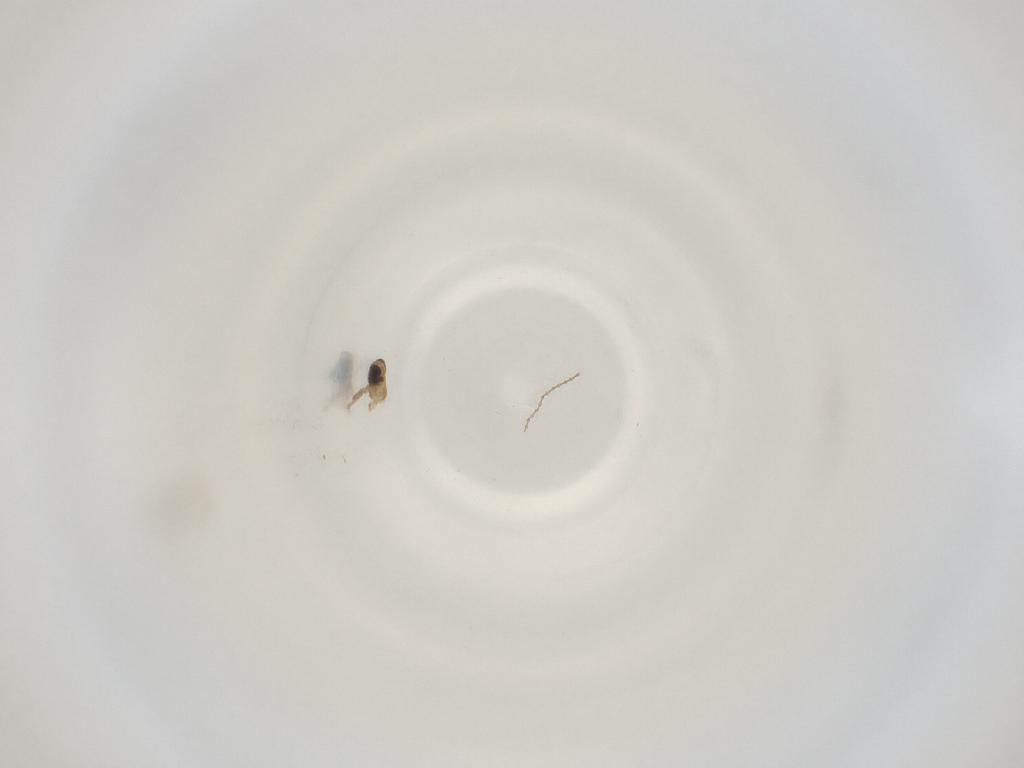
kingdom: Animalia
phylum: Arthropoda
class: Insecta
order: Diptera
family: Cecidomyiidae
